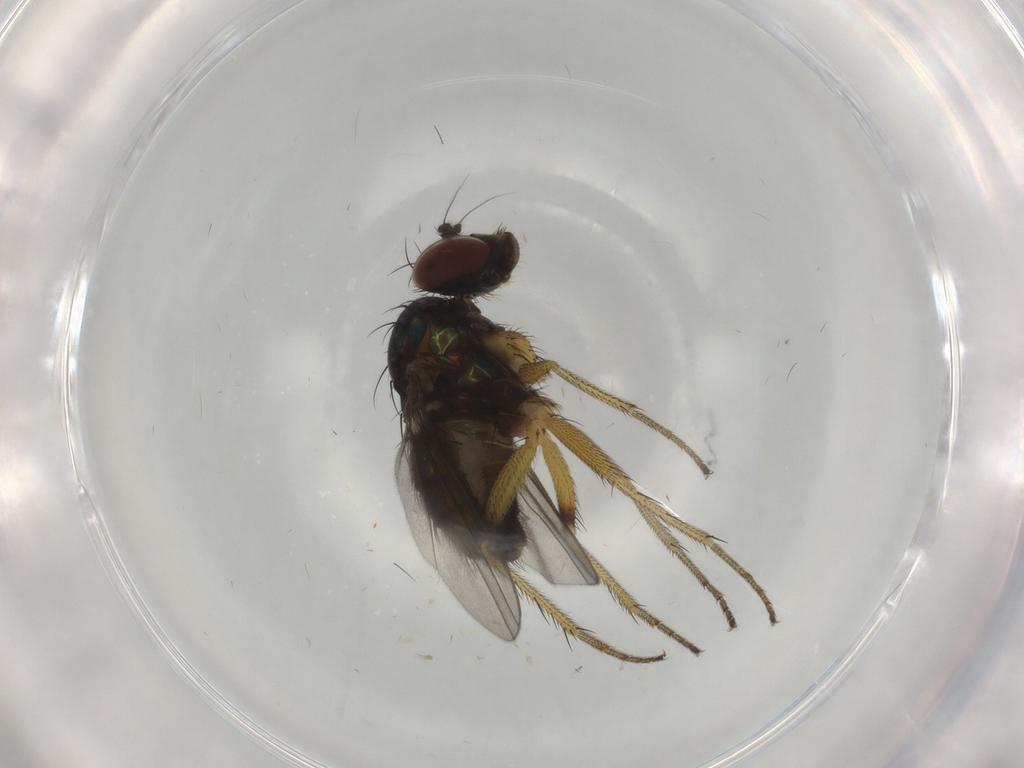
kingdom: Animalia
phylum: Arthropoda
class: Insecta
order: Diptera
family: Dolichopodidae
